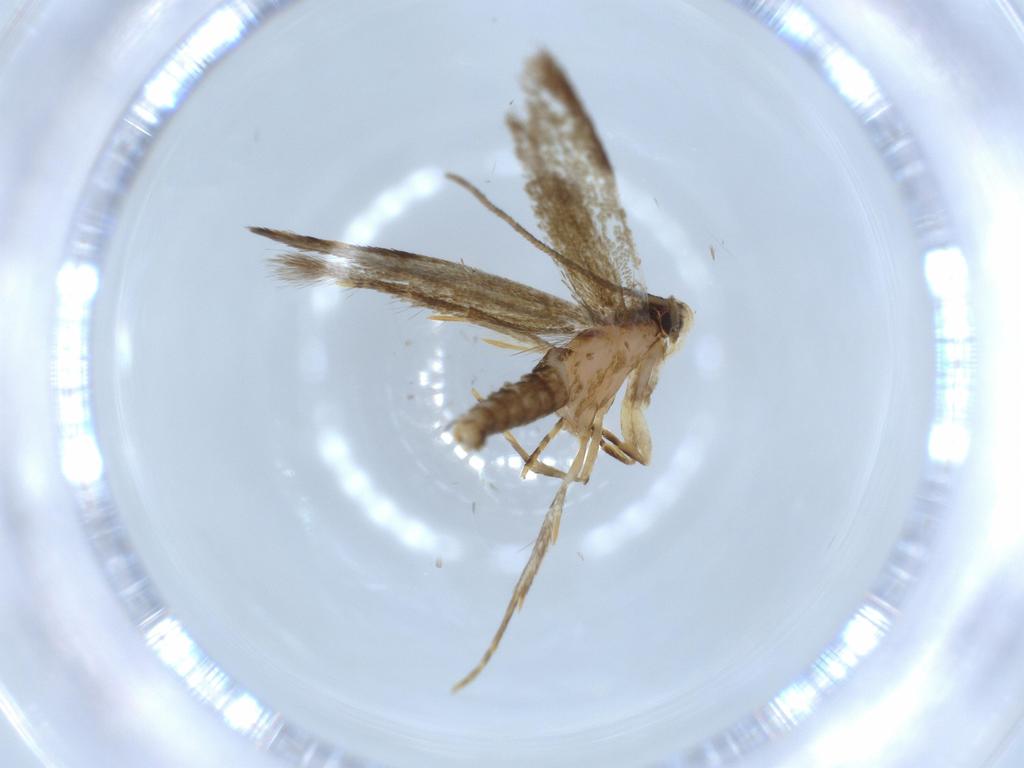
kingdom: Animalia
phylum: Arthropoda
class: Insecta
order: Lepidoptera
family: Tineidae
